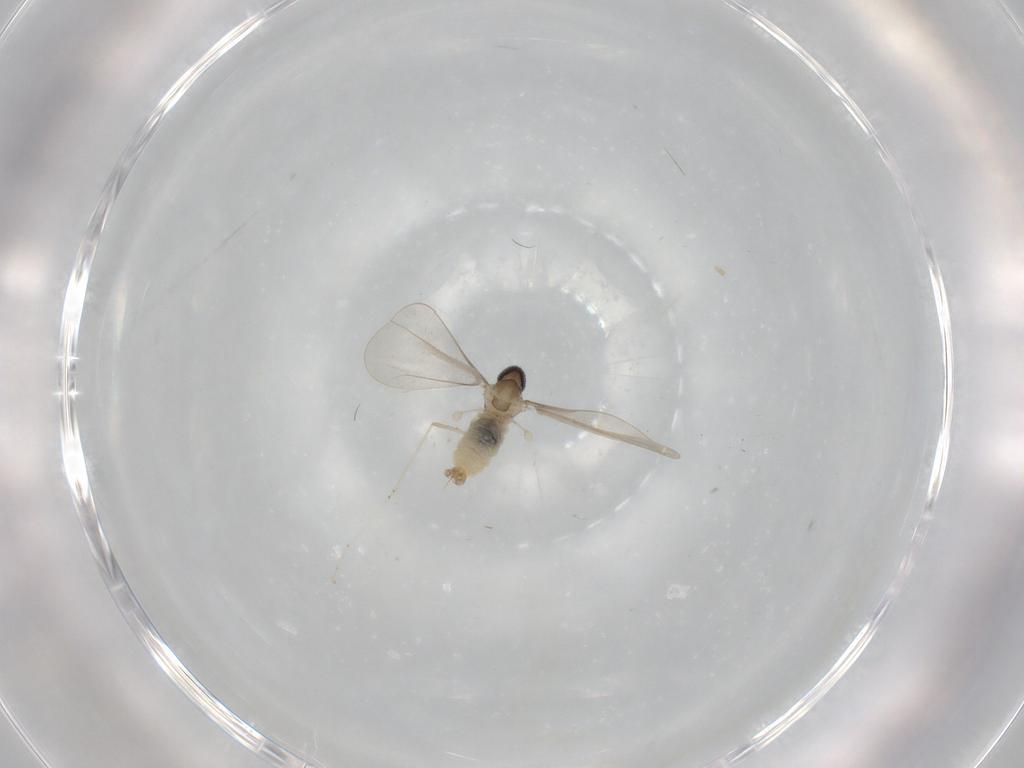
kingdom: Animalia
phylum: Arthropoda
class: Insecta
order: Diptera
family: Cecidomyiidae
